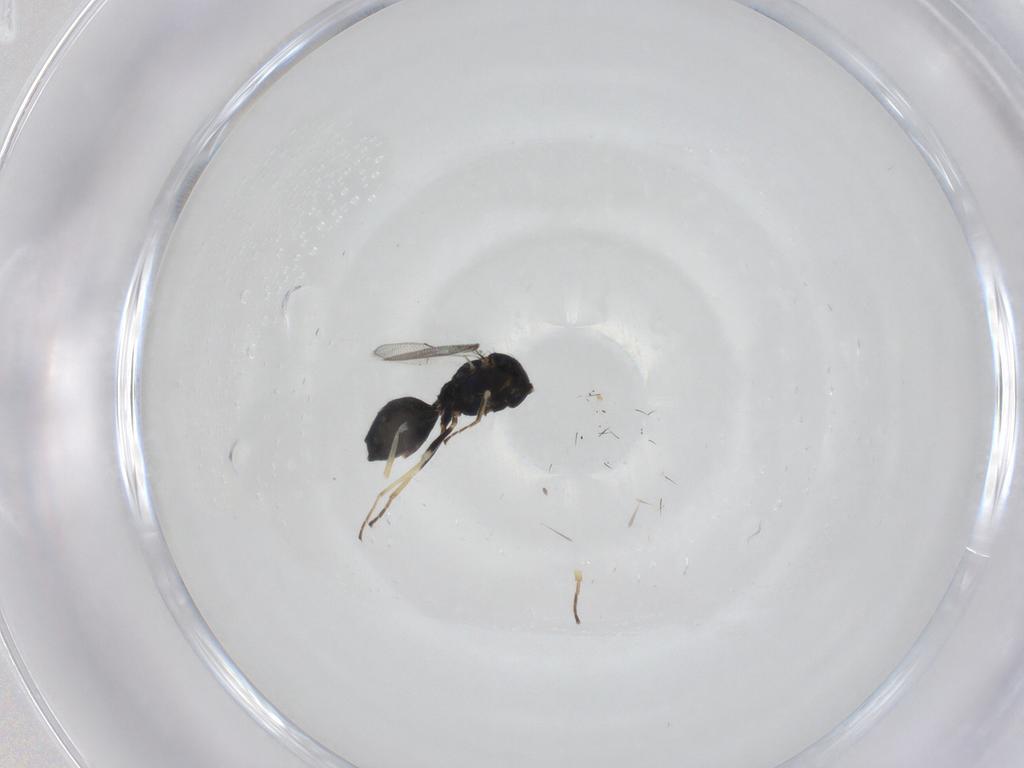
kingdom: Animalia
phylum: Arthropoda
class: Insecta
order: Hymenoptera
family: Eulophidae
